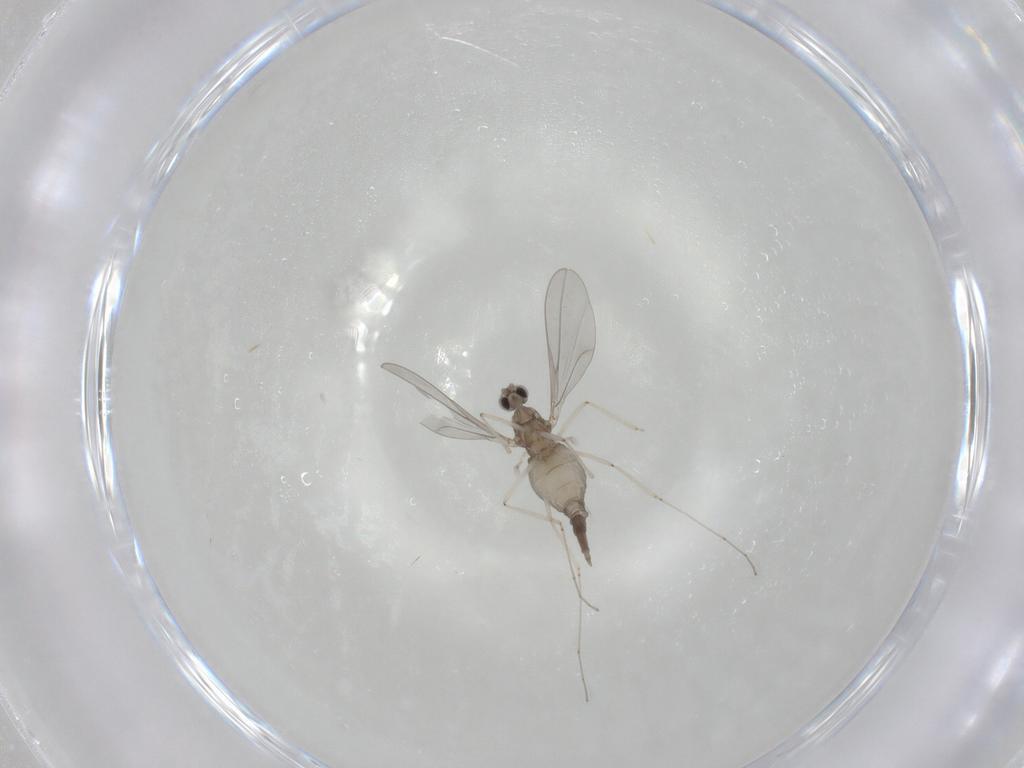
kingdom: Animalia
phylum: Arthropoda
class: Insecta
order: Diptera
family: Cecidomyiidae
